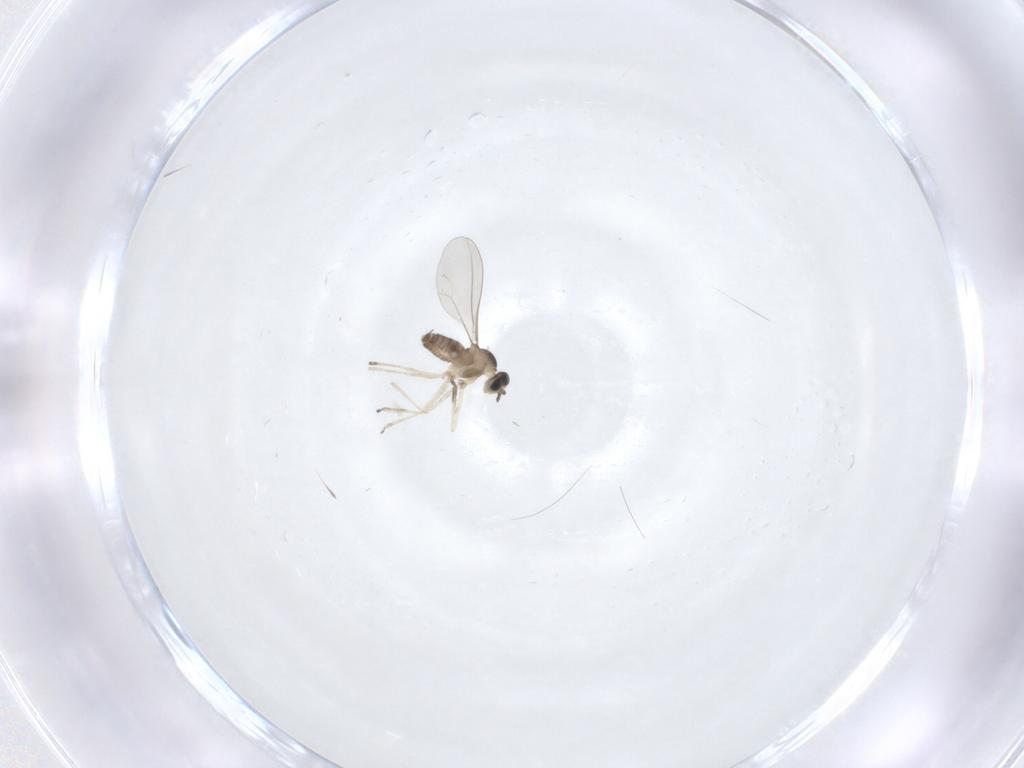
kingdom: Animalia
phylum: Arthropoda
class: Insecta
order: Diptera
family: Cecidomyiidae
